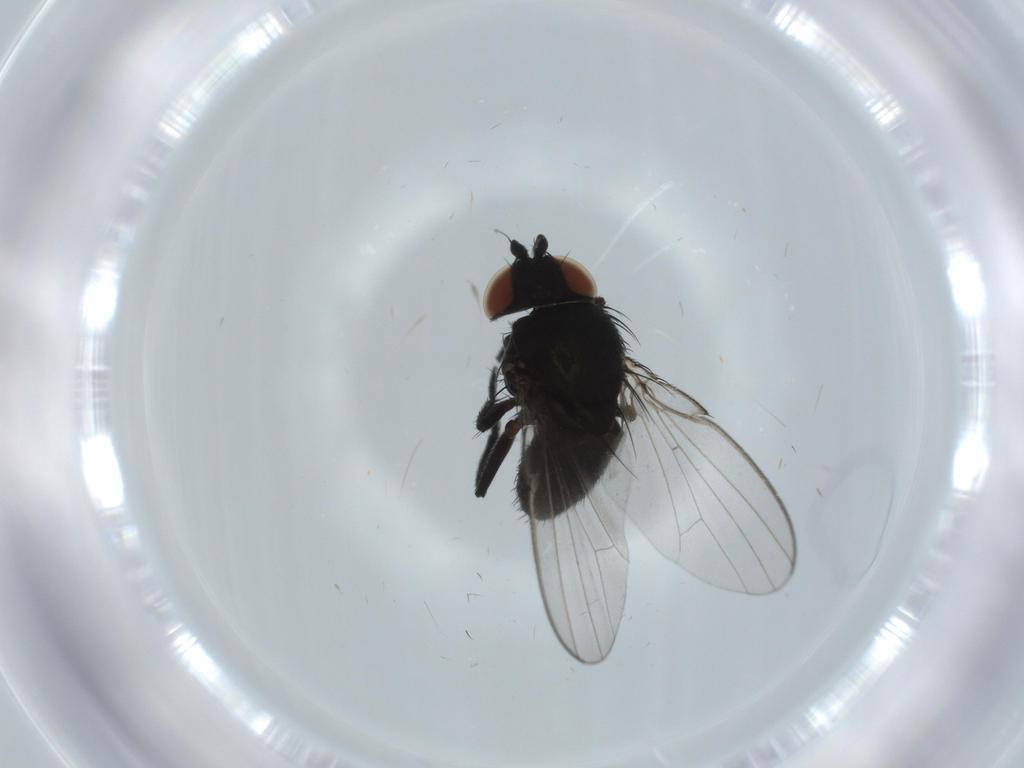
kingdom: Animalia
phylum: Arthropoda
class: Insecta
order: Diptera
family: Milichiidae
